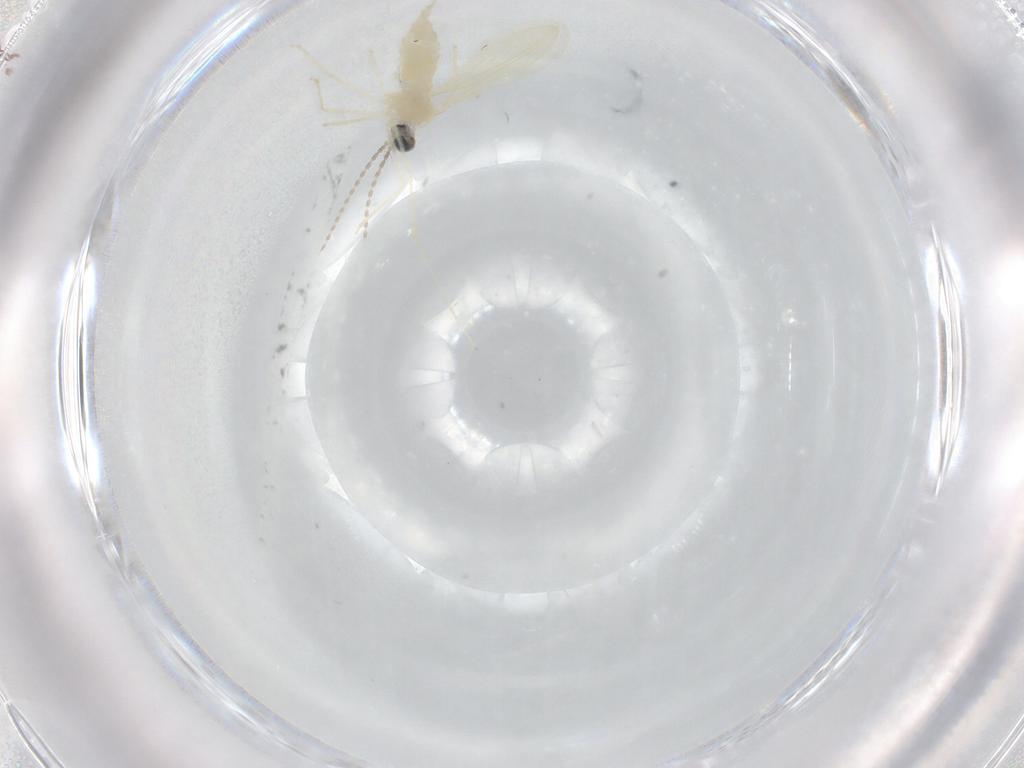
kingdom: Animalia
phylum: Arthropoda
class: Insecta
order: Diptera
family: Cecidomyiidae
